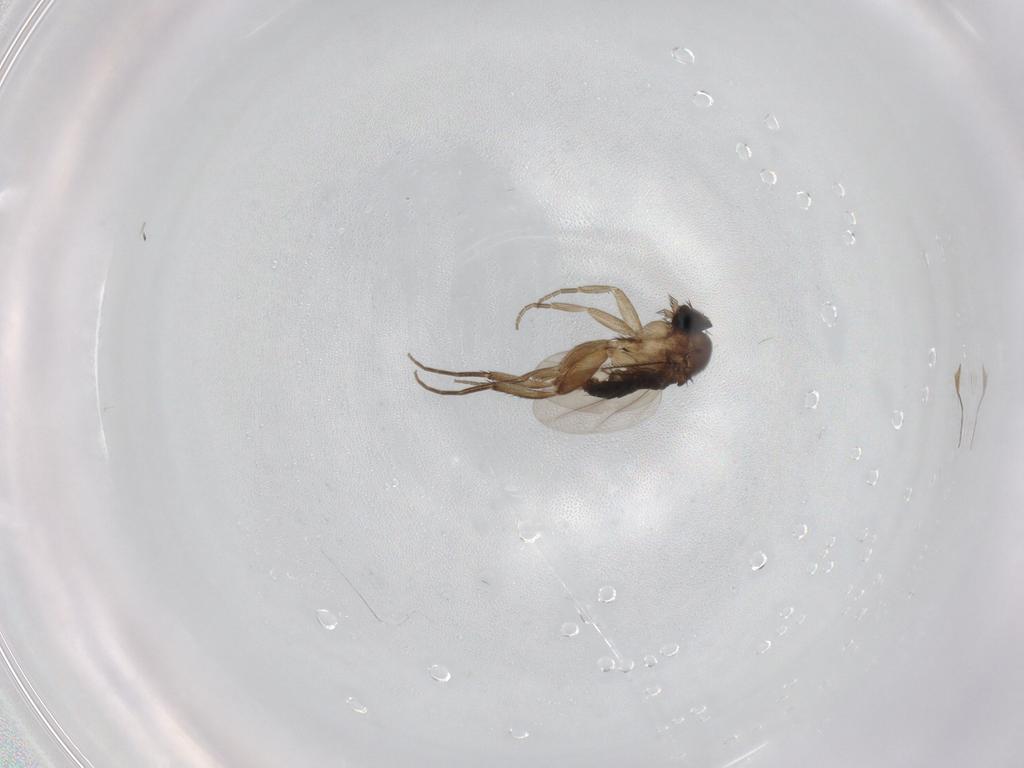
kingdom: Animalia
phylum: Arthropoda
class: Insecta
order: Diptera
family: Phoridae
